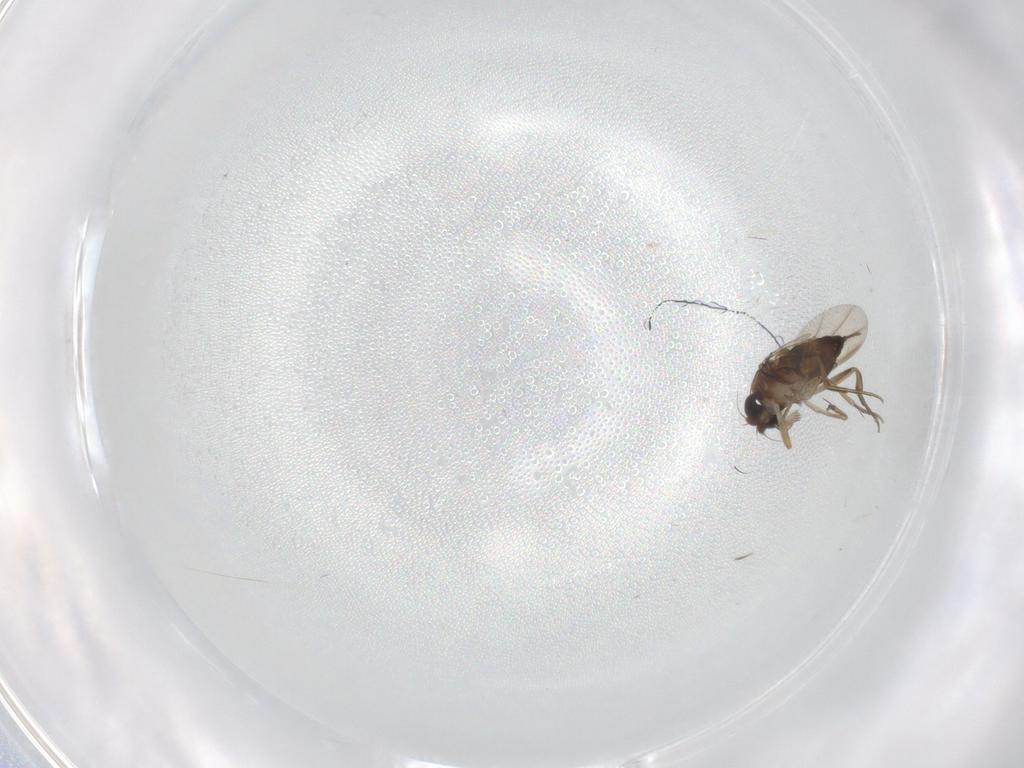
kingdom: Animalia
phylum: Arthropoda
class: Insecta
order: Diptera
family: Phoridae
